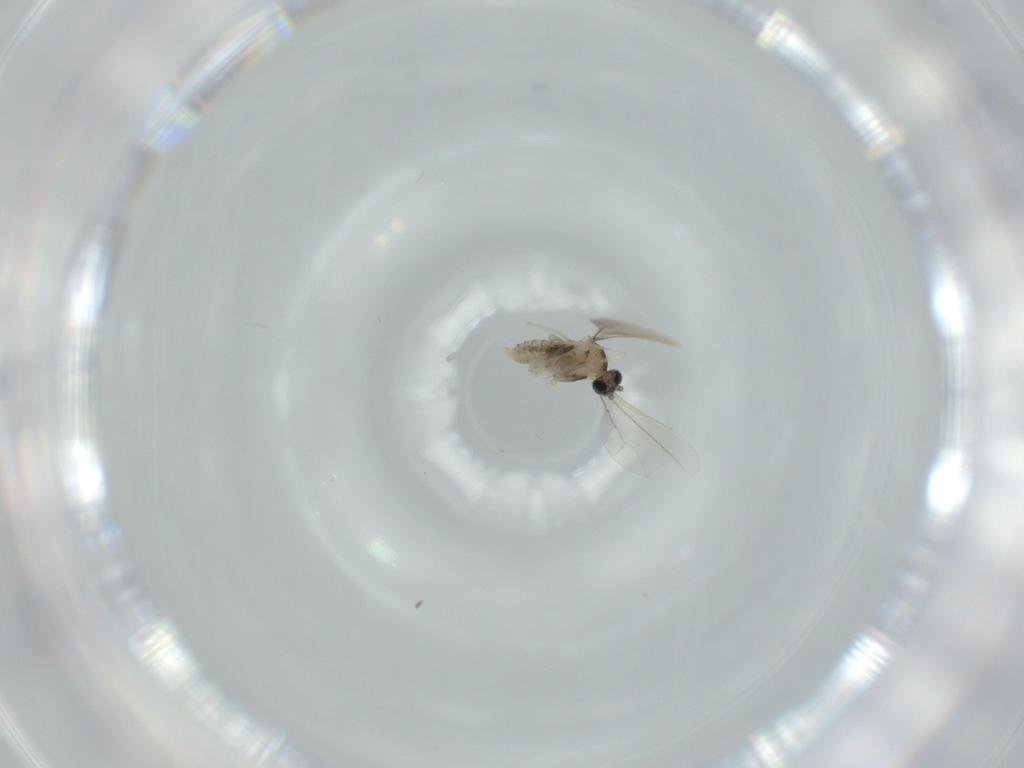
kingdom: Animalia
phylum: Arthropoda
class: Insecta
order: Diptera
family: Cecidomyiidae
